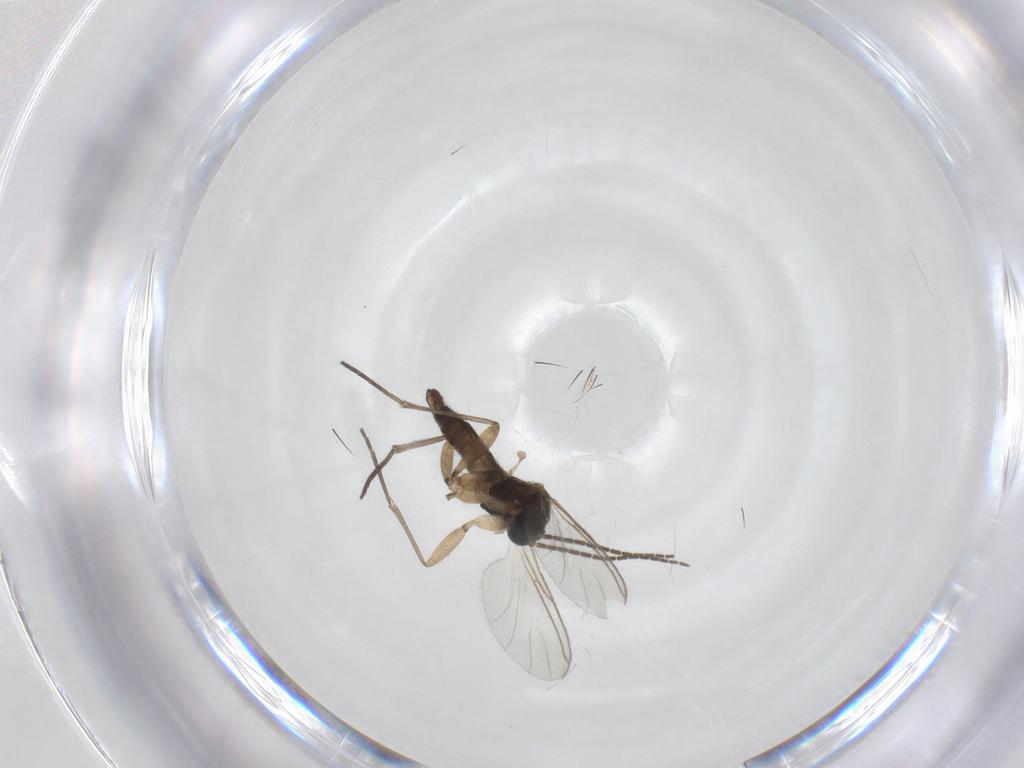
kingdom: Animalia
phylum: Arthropoda
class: Insecta
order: Diptera
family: Sciaridae
